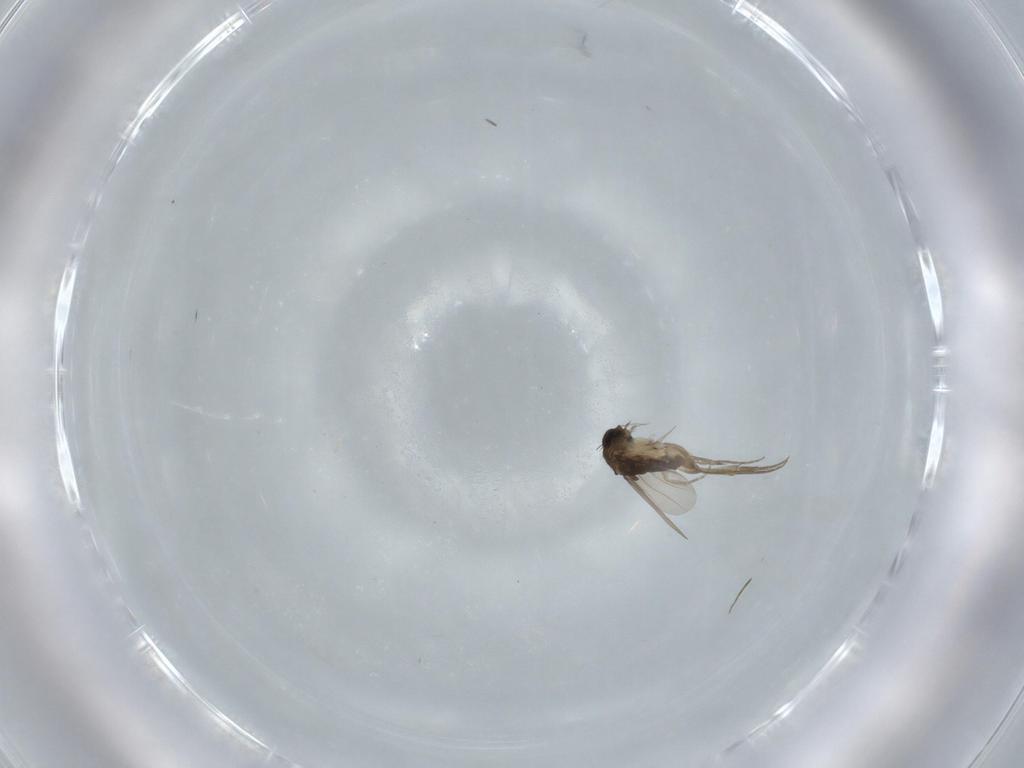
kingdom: Animalia
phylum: Arthropoda
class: Insecta
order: Diptera
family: Phoridae
